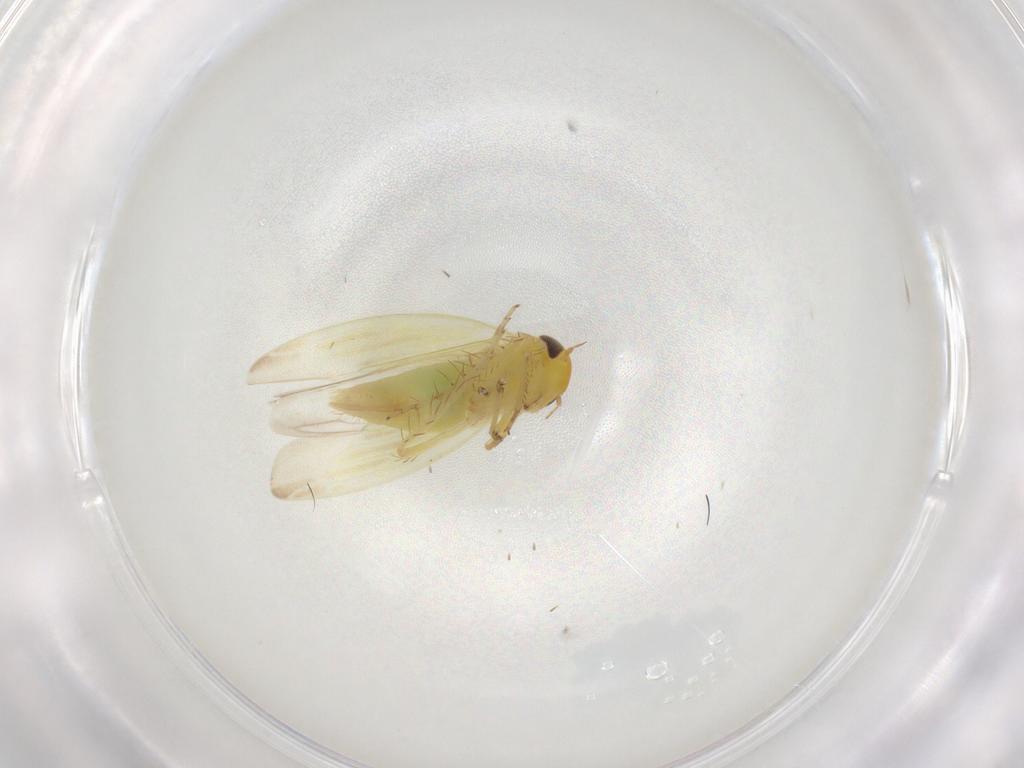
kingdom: Animalia
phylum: Arthropoda
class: Insecta
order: Hemiptera
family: Cicadellidae
